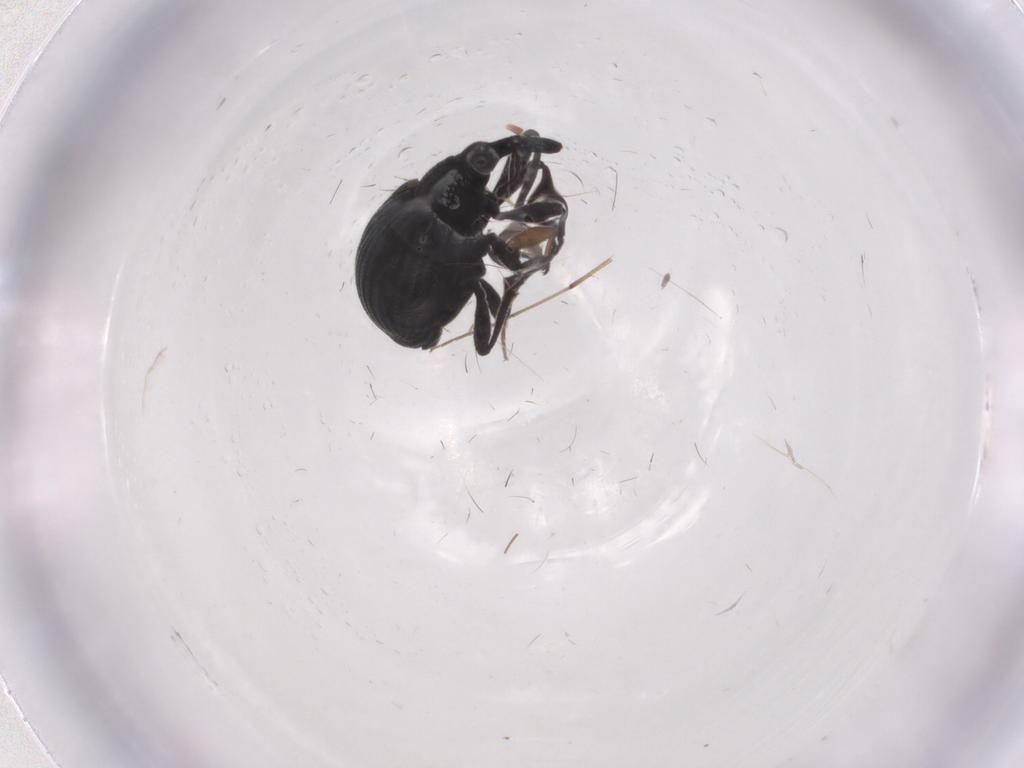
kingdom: Animalia
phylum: Arthropoda
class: Insecta
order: Coleoptera
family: Brentidae
